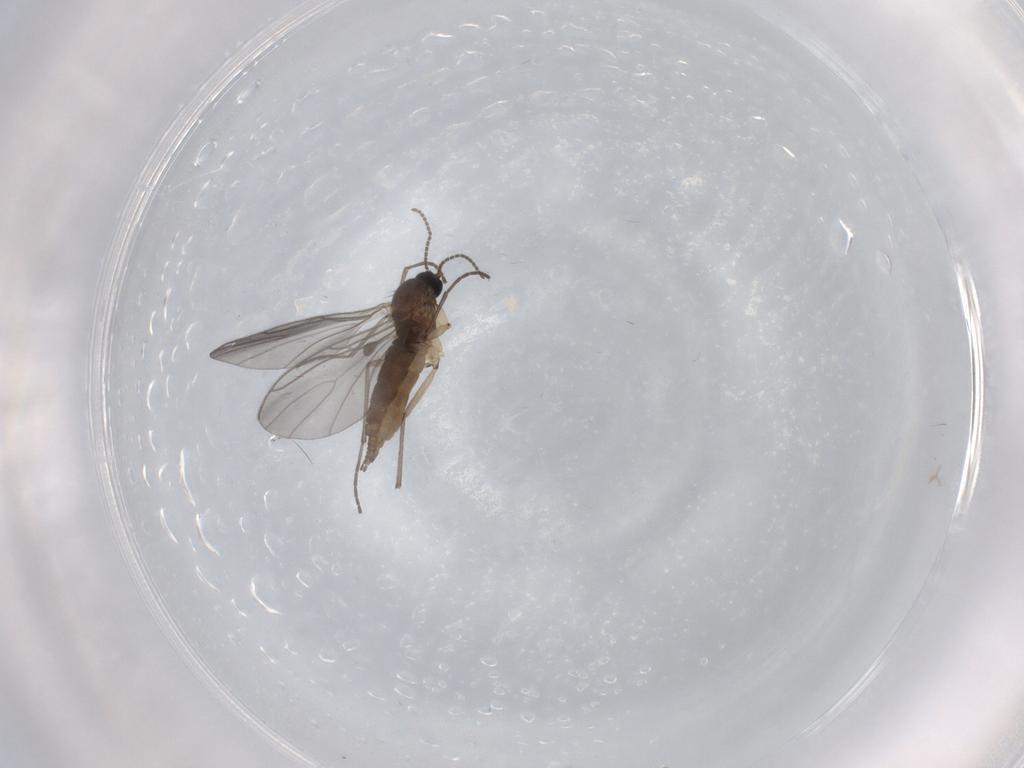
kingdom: Animalia
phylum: Arthropoda
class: Insecta
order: Diptera
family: Sciaridae
